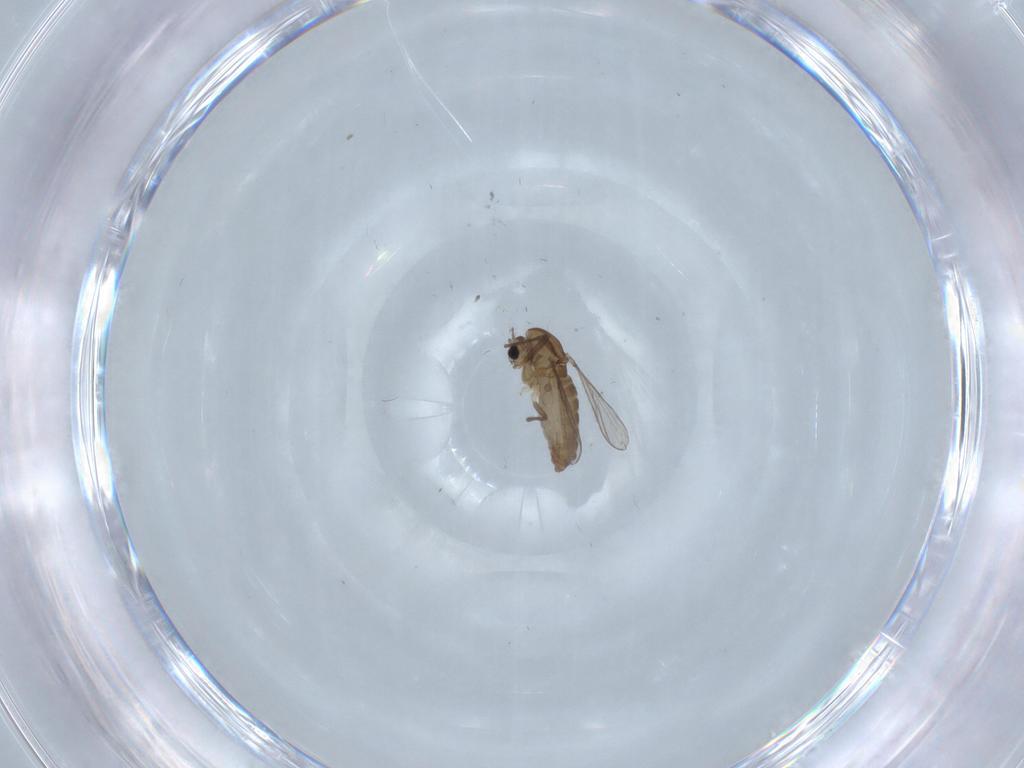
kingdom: Animalia
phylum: Arthropoda
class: Insecta
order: Diptera
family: Chironomidae
